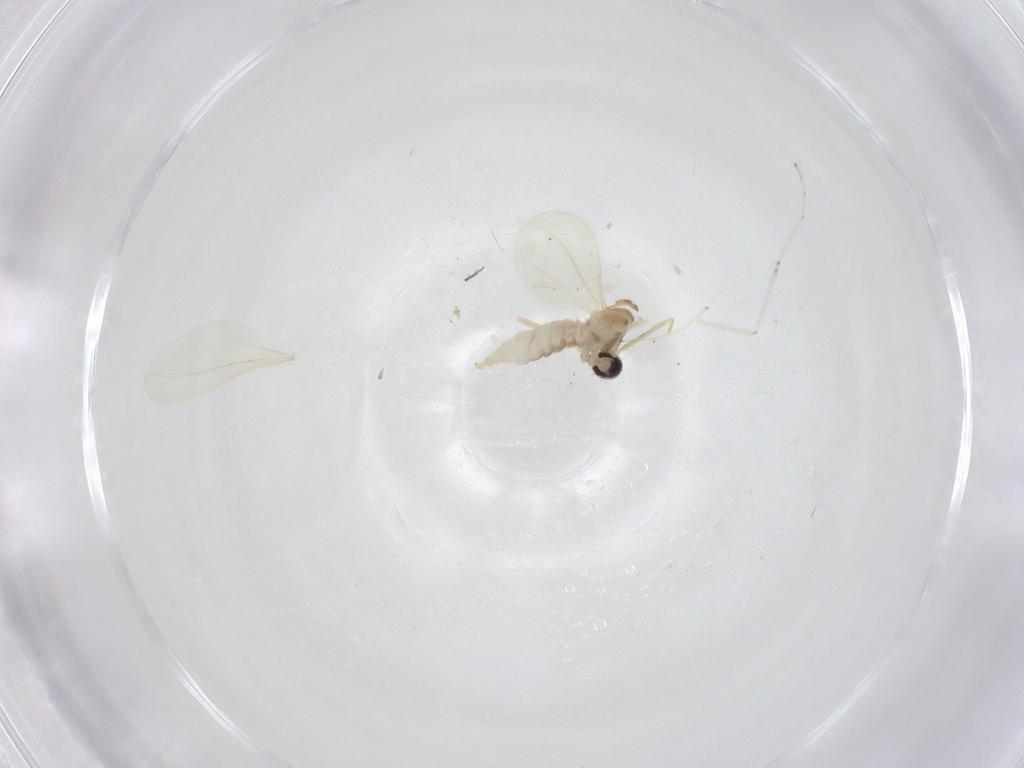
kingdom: Animalia
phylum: Arthropoda
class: Insecta
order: Diptera
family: Cecidomyiidae
